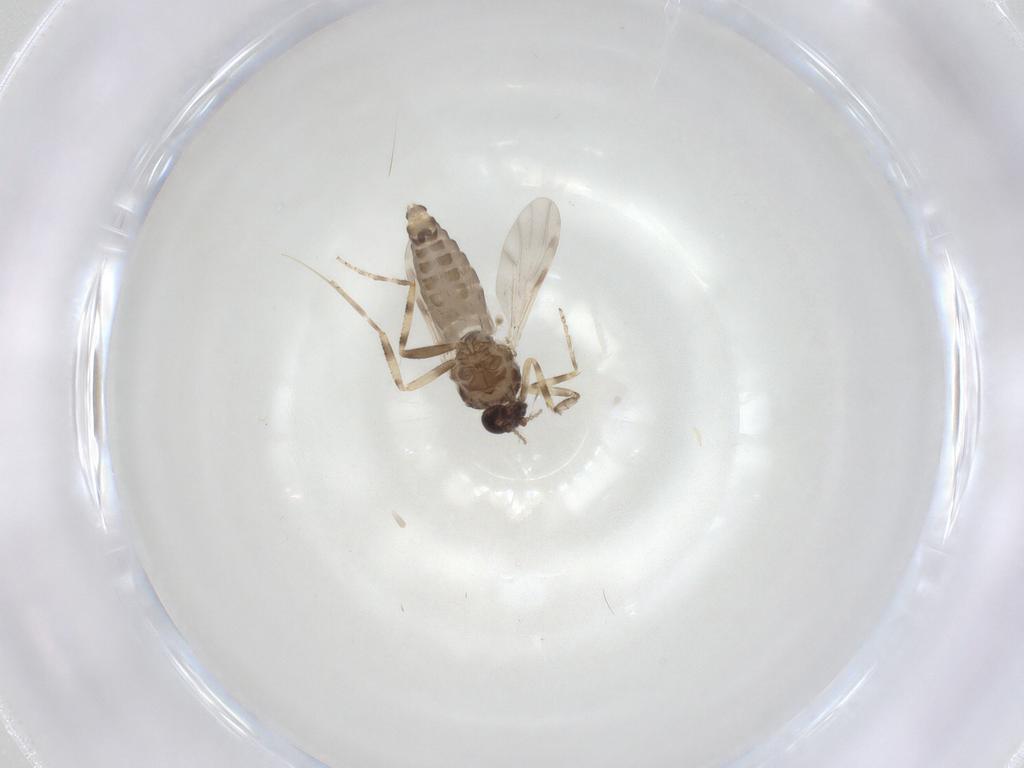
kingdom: Animalia
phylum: Arthropoda
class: Insecta
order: Diptera
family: Ceratopogonidae
